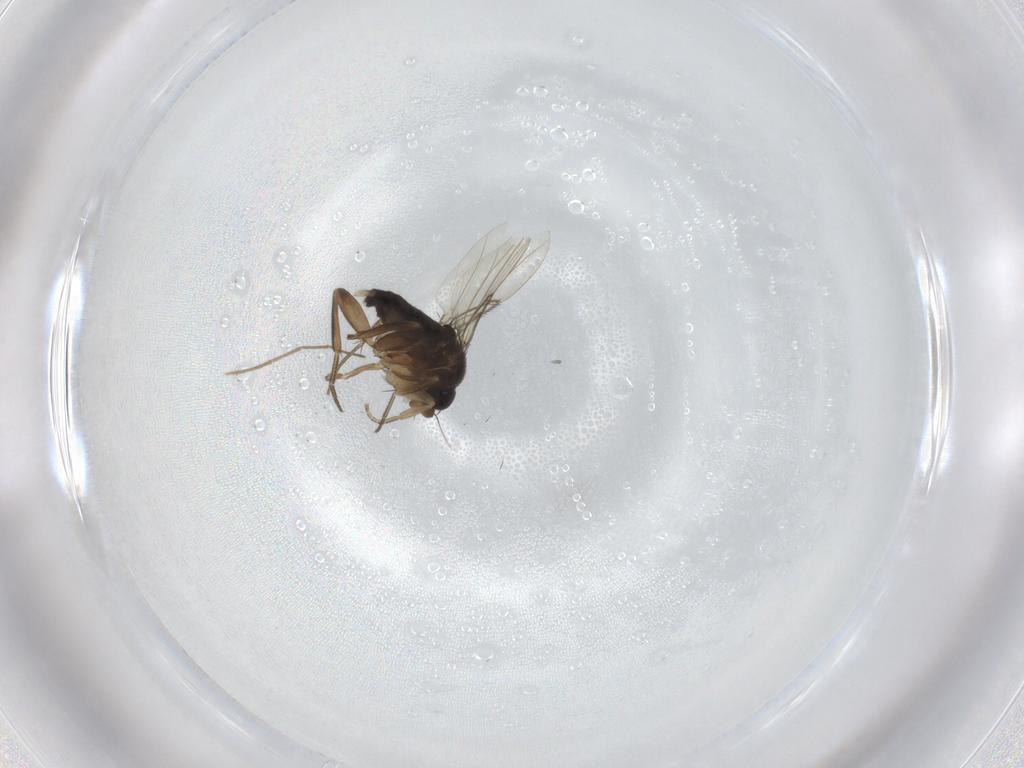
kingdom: Animalia
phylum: Arthropoda
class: Insecta
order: Diptera
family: Phoridae
